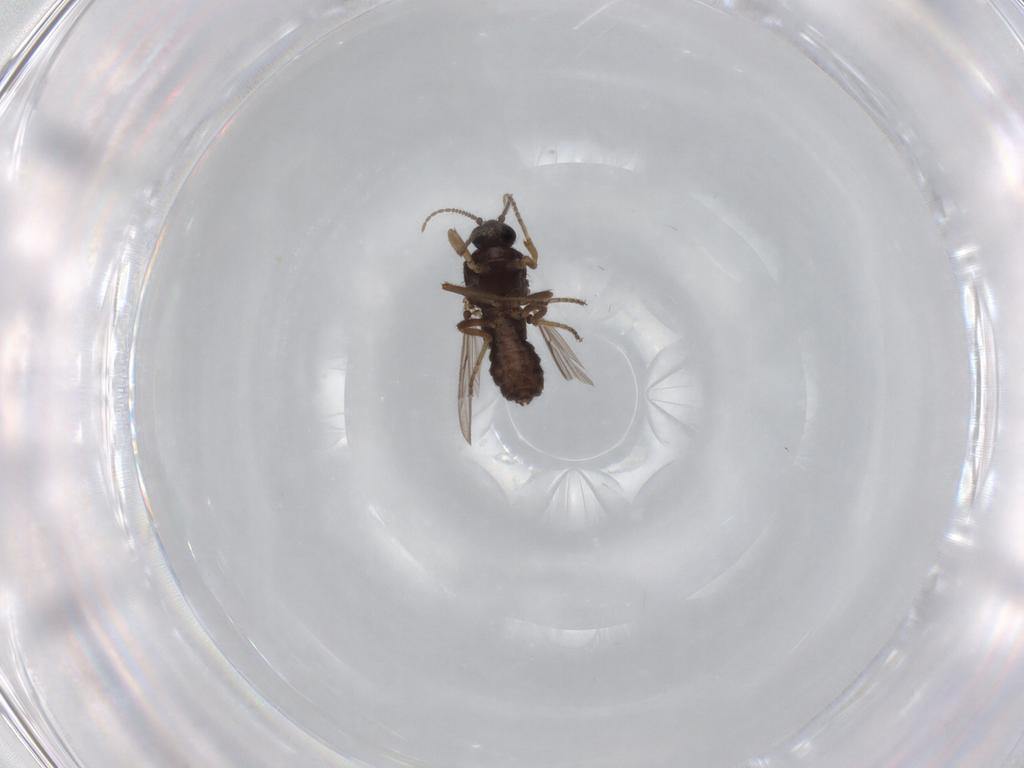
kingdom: Animalia
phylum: Arthropoda
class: Insecta
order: Diptera
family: Ceratopogonidae
